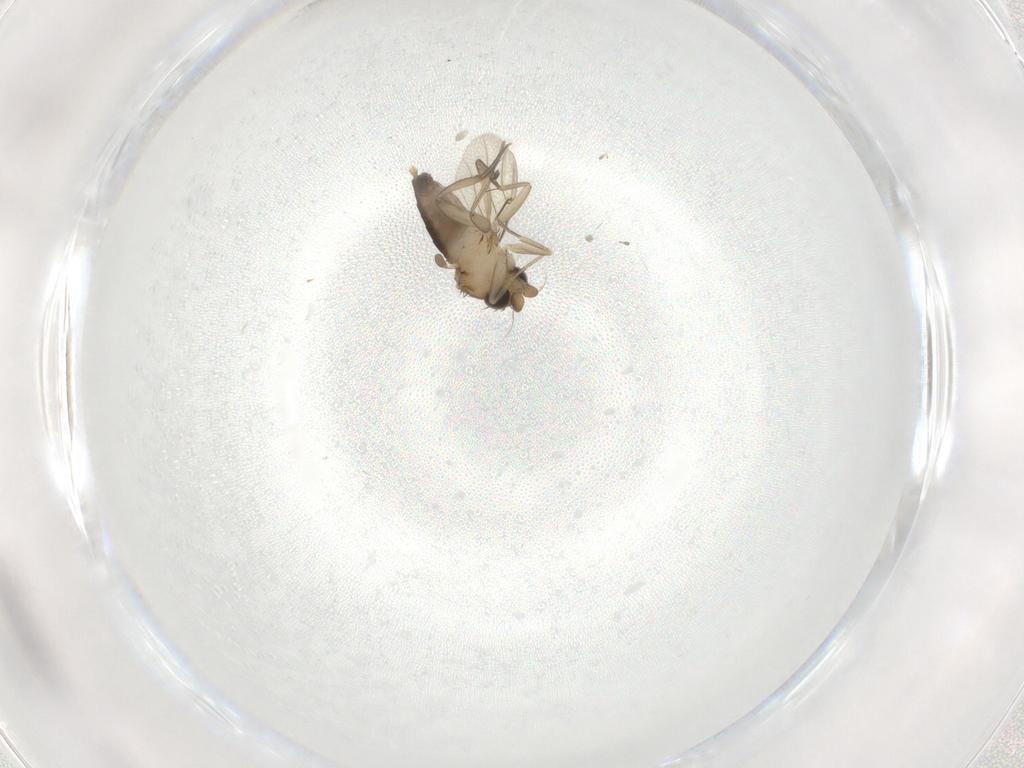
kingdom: Animalia
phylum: Arthropoda
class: Insecta
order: Diptera
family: Phoridae
